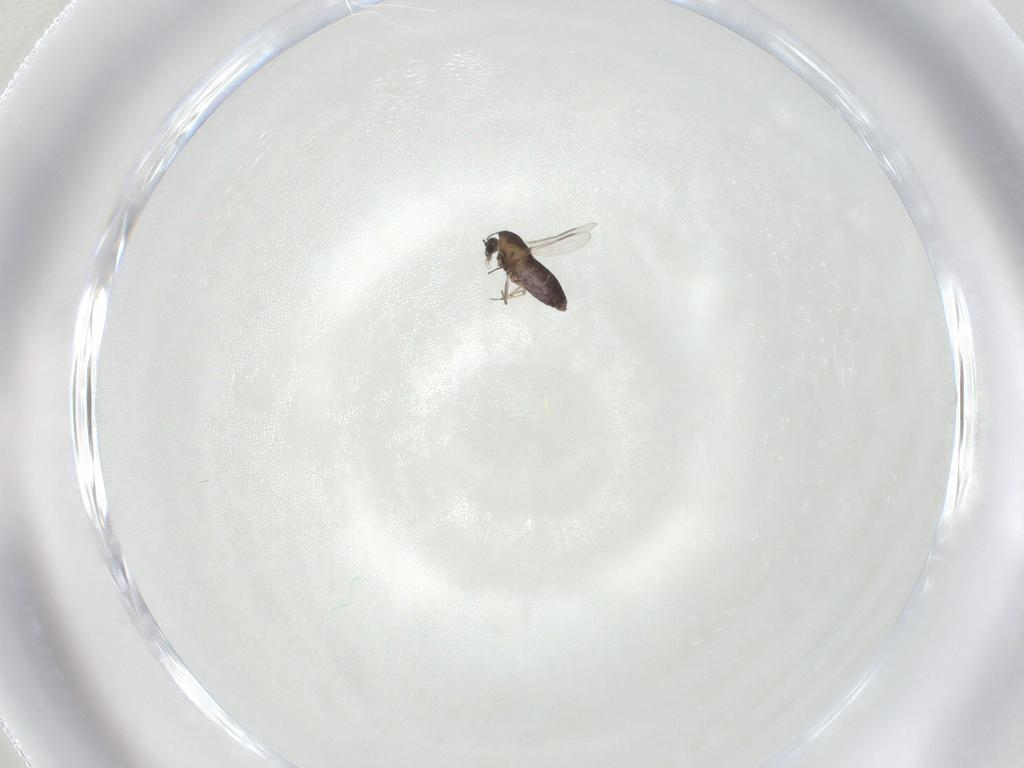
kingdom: Animalia
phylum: Arthropoda
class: Insecta
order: Diptera
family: Chironomidae
